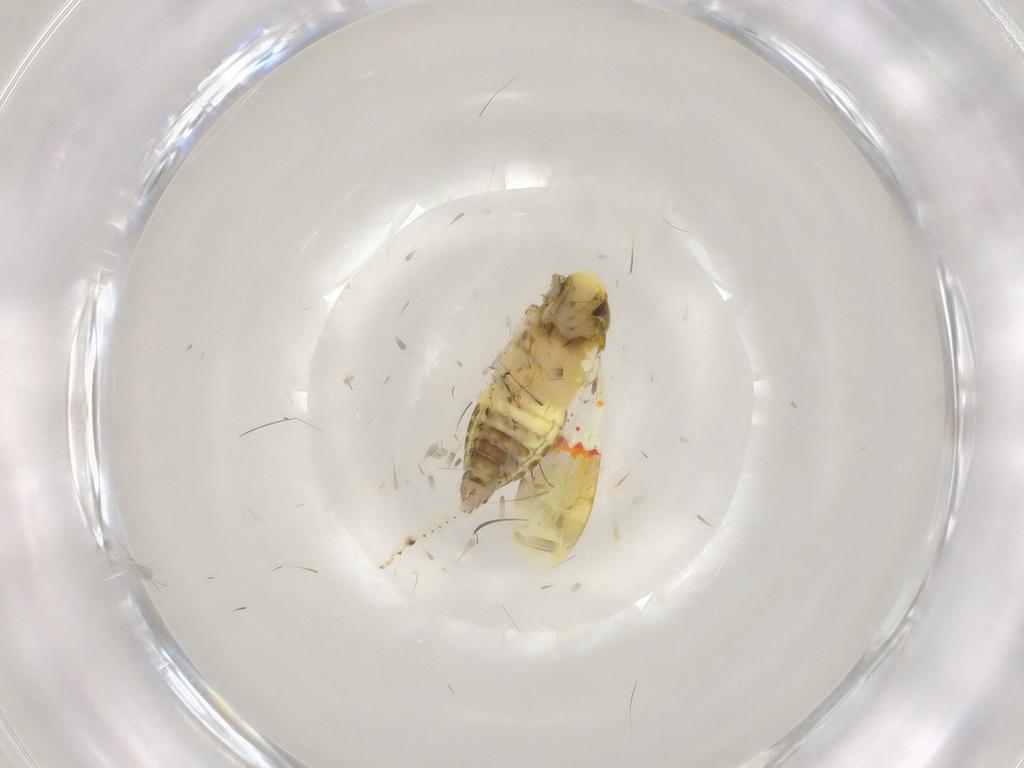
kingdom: Animalia
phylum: Arthropoda
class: Insecta
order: Hemiptera
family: Cicadellidae
